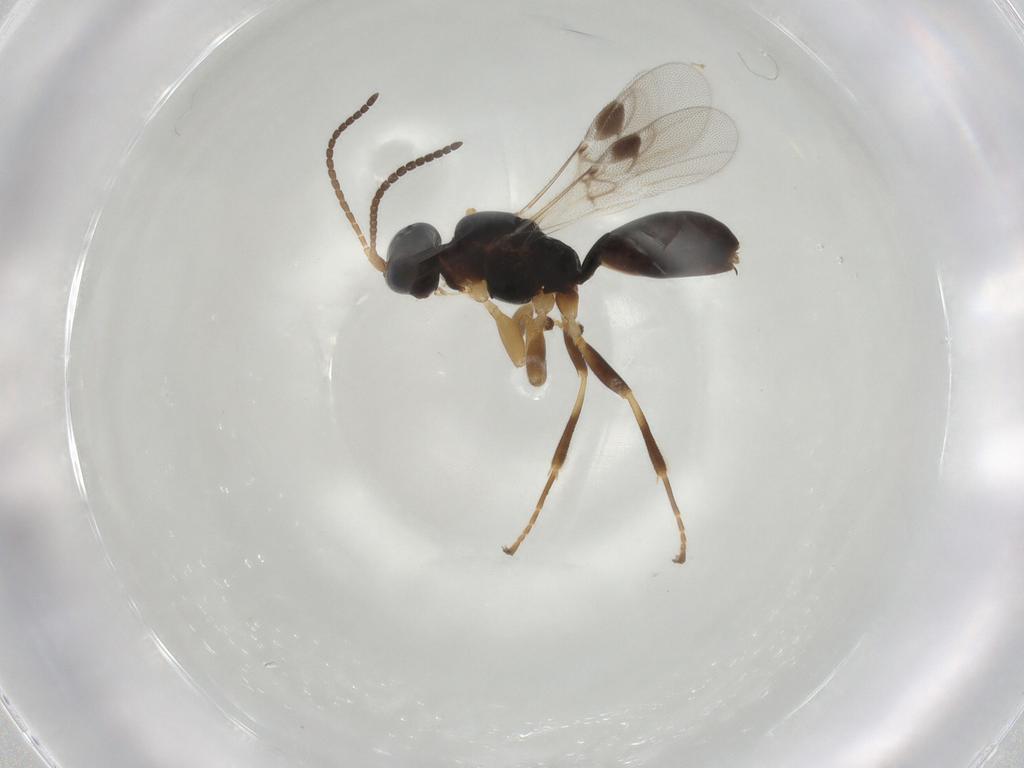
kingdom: Animalia
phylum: Arthropoda
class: Insecta
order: Hymenoptera
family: Braconidae
